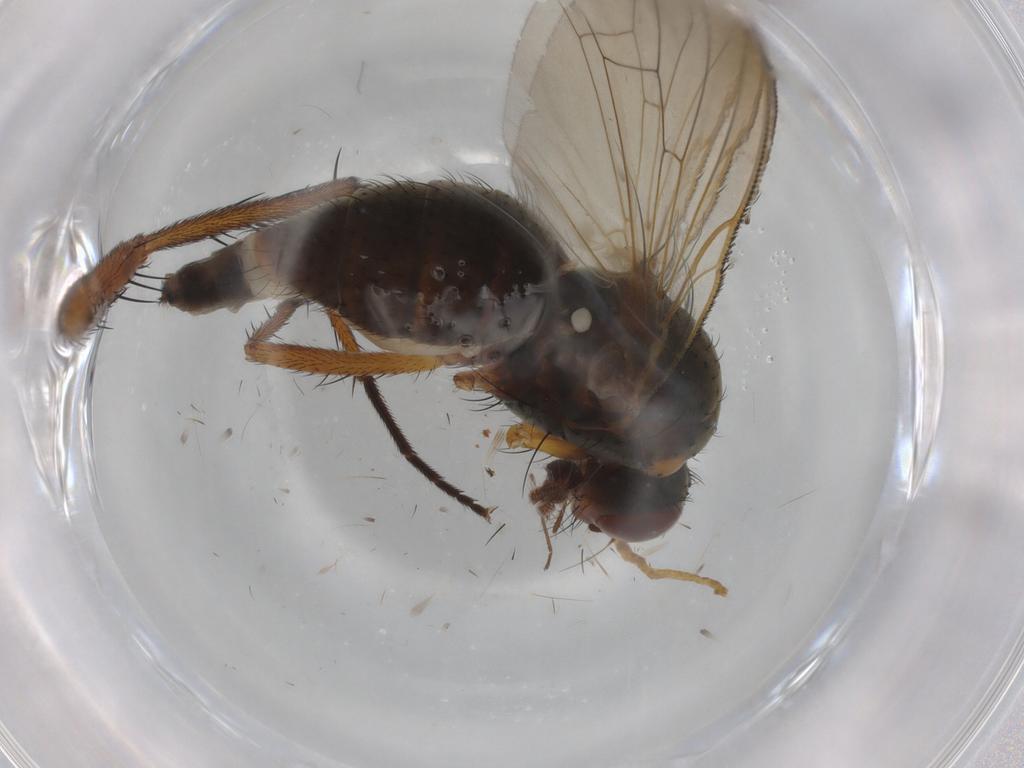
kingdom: Animalia
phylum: Arthropoda
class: Insecta
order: Diptera
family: Anthomyiidae
